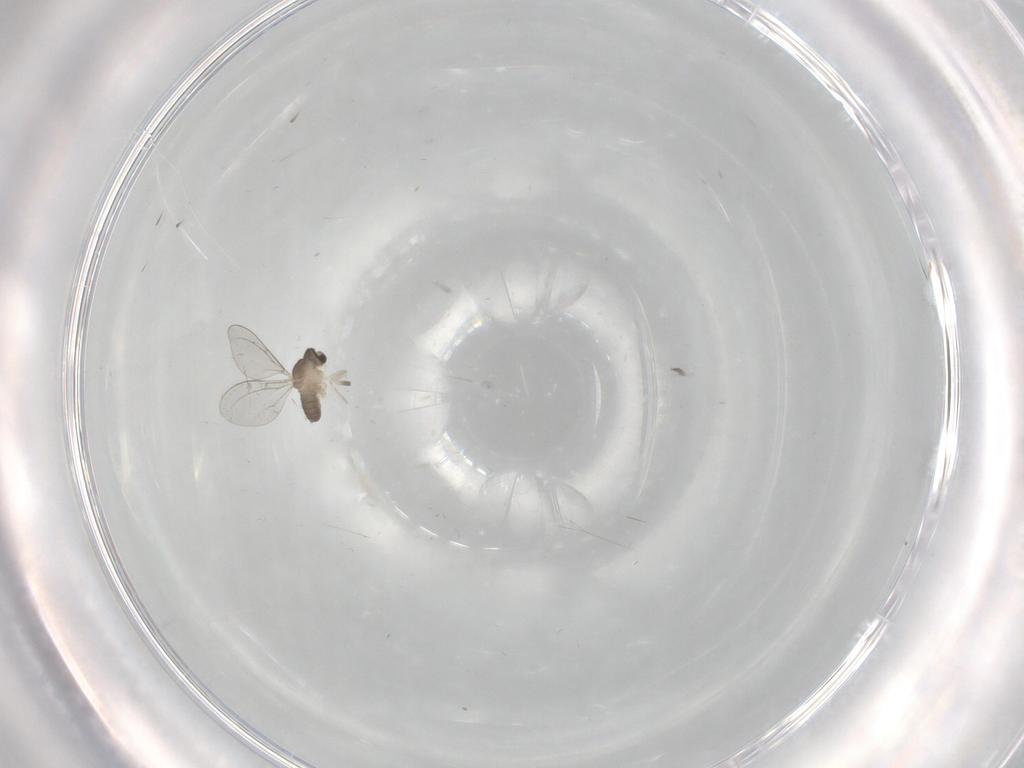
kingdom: Animalia
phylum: Arthropoda
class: Insecta
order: Diptera
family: Cecidomyiidae
